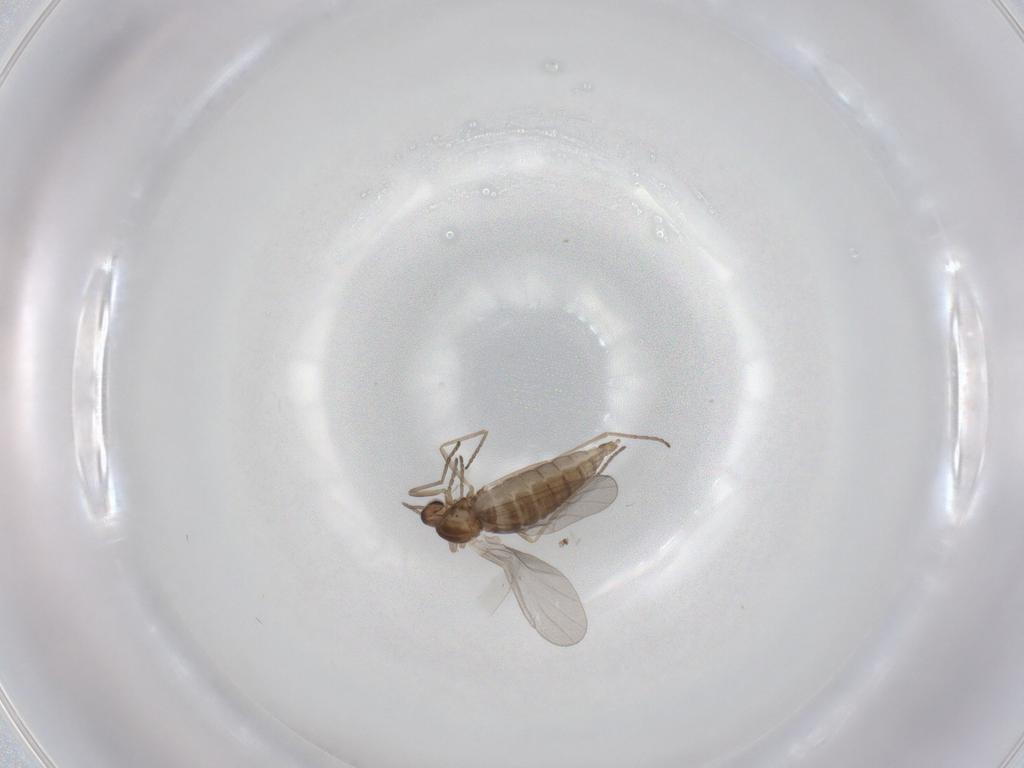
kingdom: Animalia
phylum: Arthropoda
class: Insecta
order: Diptera
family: Cecidomyiidae
